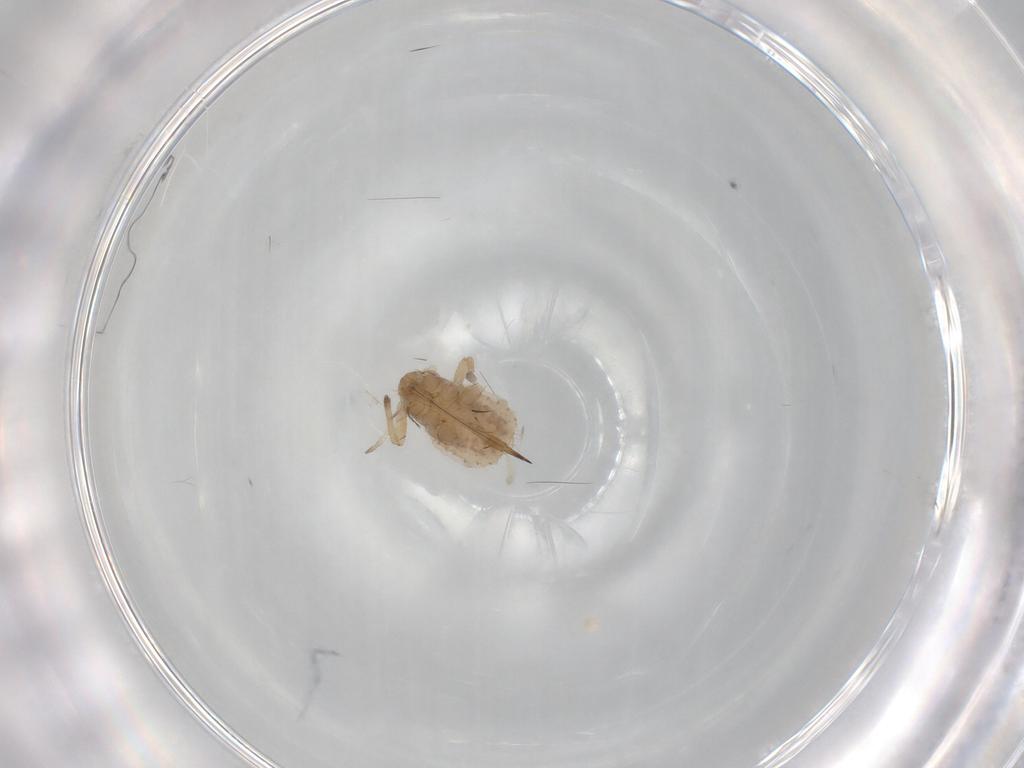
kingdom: Animalia
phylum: Arthropoda
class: Insecta
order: Hemiptera
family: Aphididae
